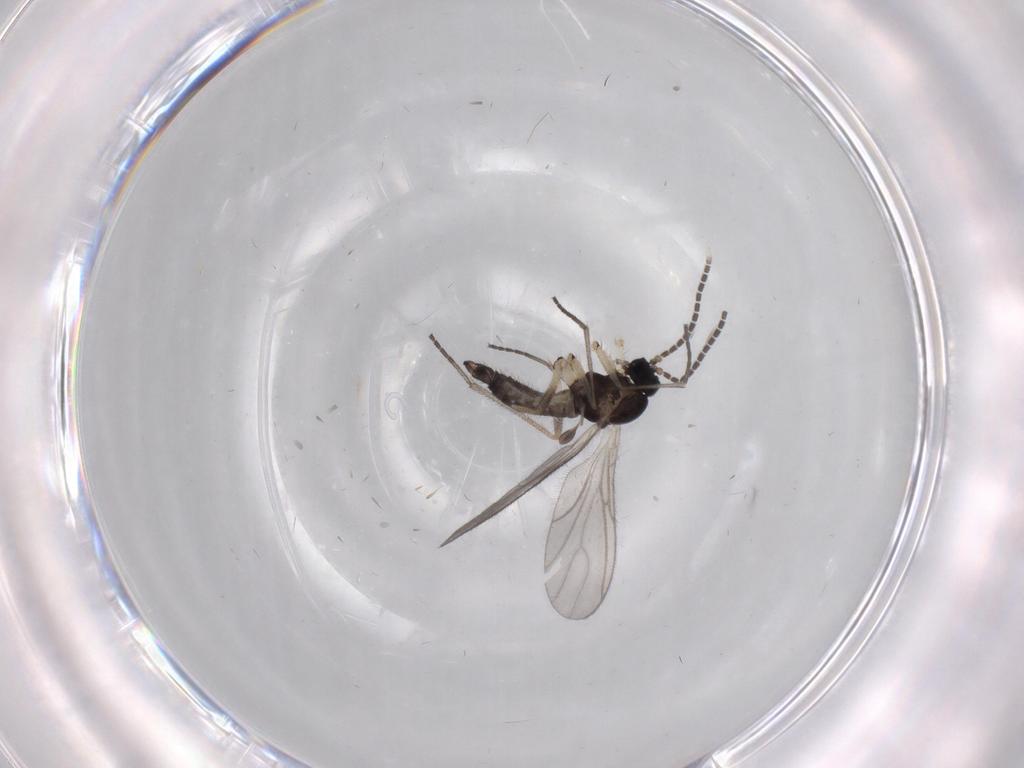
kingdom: Animalia
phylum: Arthropoda
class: Insecta
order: Diptera
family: Sciaridae
